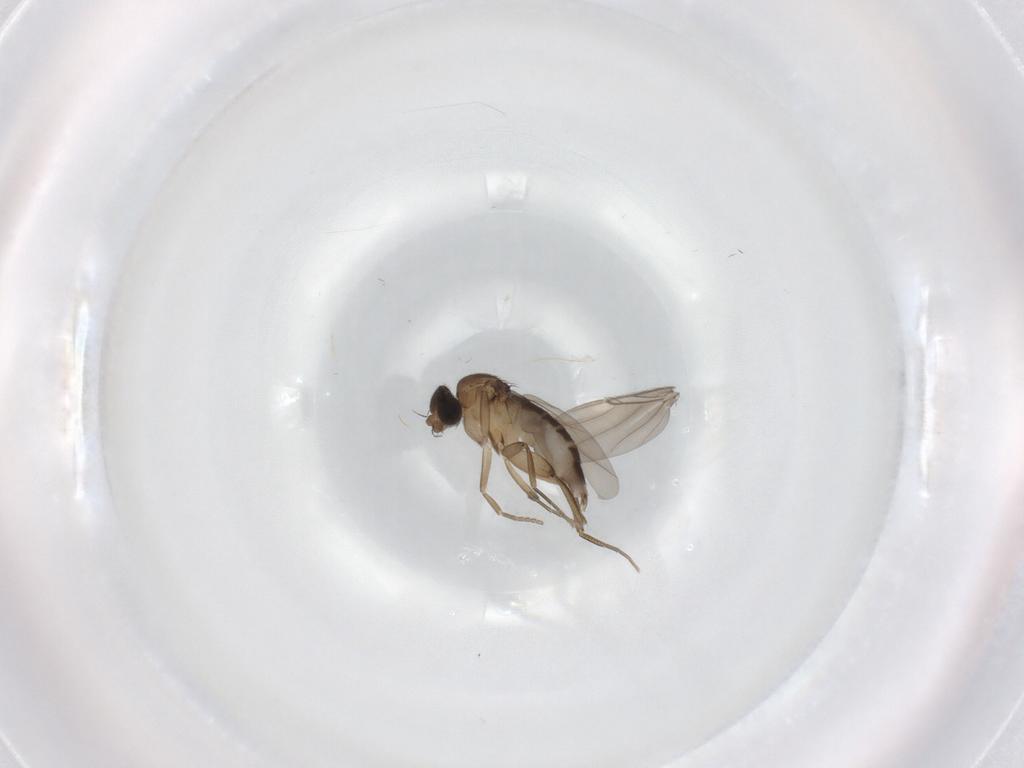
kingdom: Animalia
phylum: Arthropoda
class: Insecta
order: Diptera
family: Phoridae
